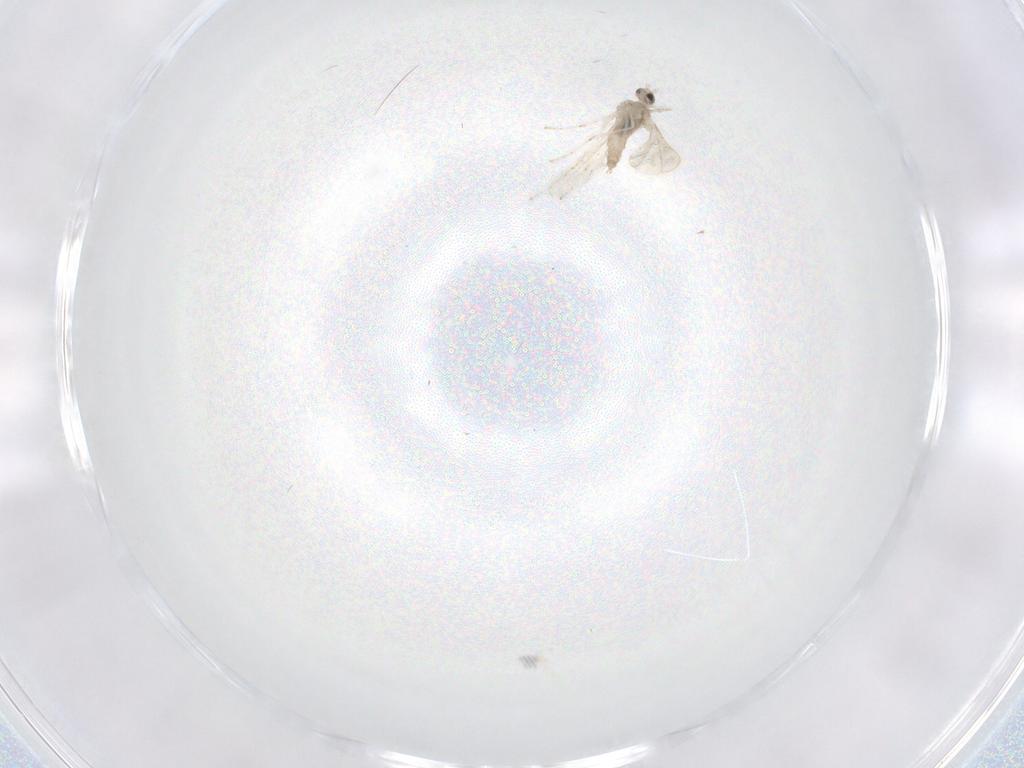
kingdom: Animalia
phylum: Arthropoda
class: Insecta
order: Diptera
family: Cecidomyiidae
